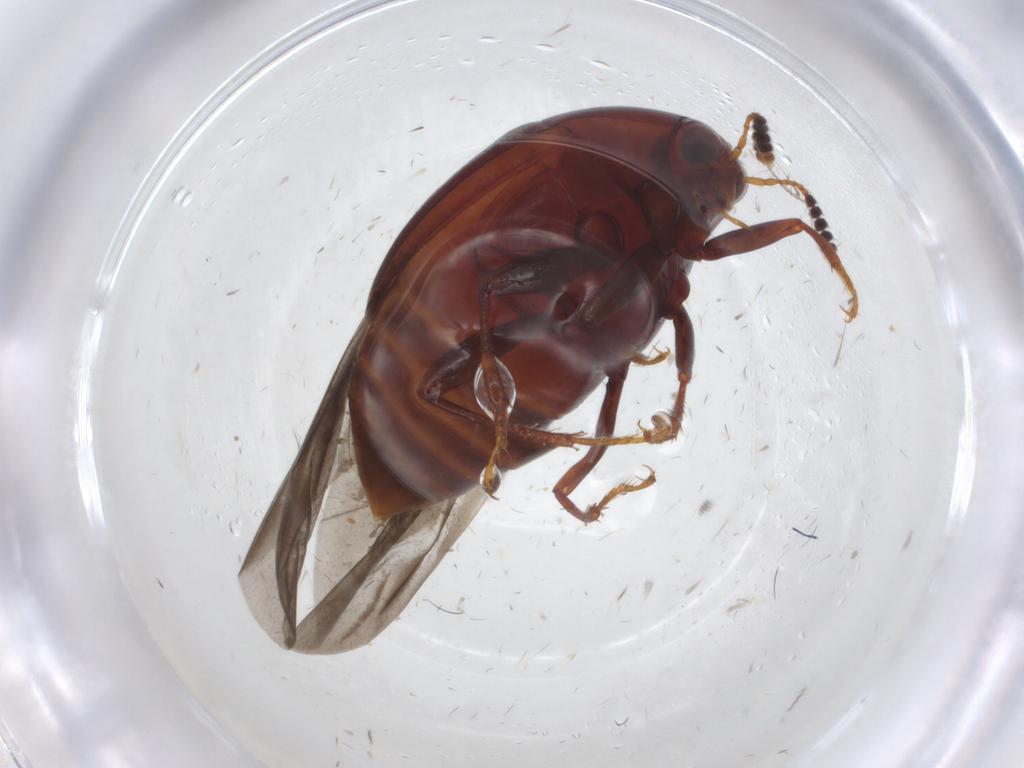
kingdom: Animalia
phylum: Arthropoda
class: Insecta
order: Coleoptera
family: Staphylinidae
